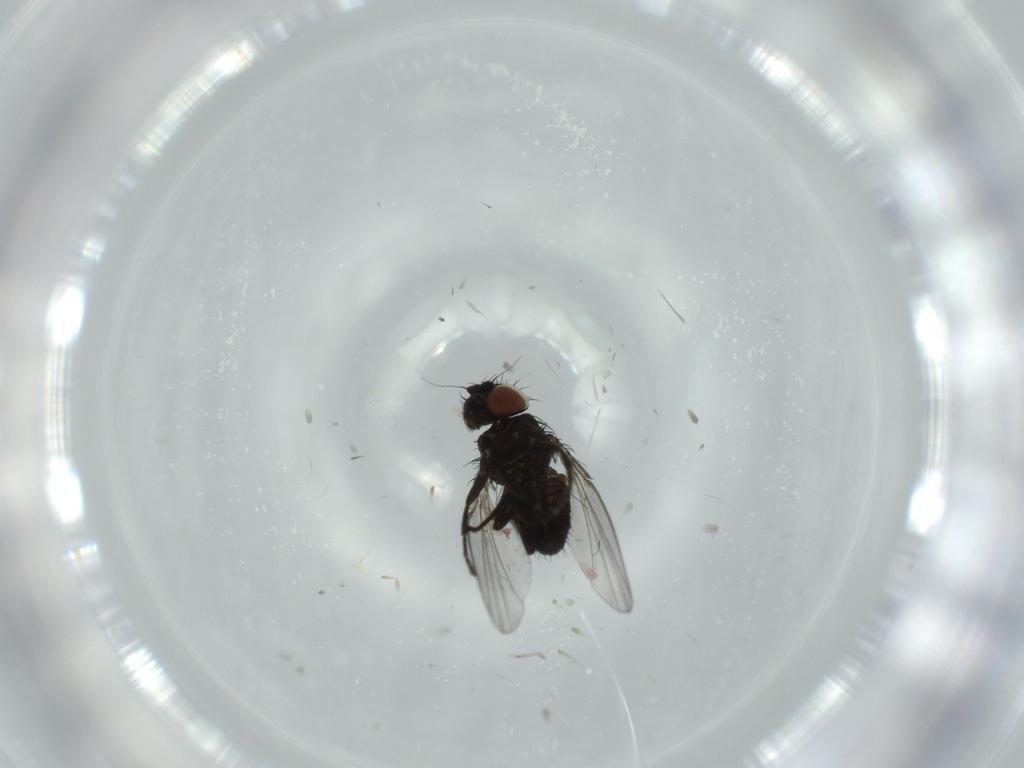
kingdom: Animalia
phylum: Arthropoda
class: Insecta
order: Diptera
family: Milichiidae
